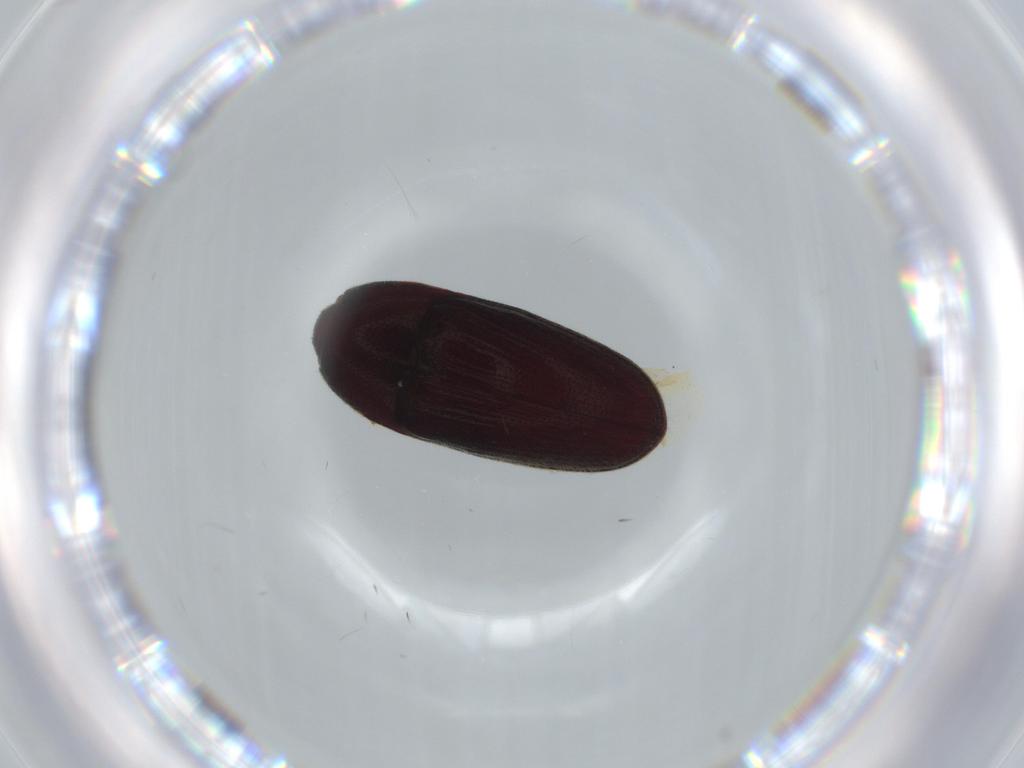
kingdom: Animalia
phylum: Arthropoda
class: Insecta
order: Coleoptera
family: Throscidae
